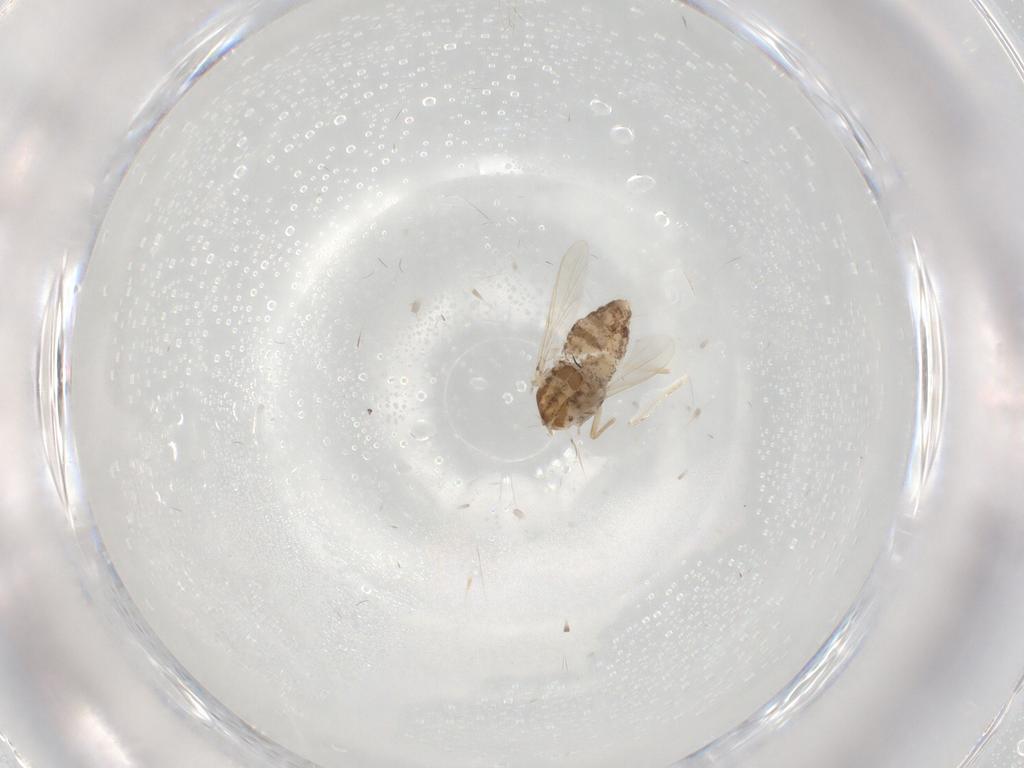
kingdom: Animalia
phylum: Arthropoda
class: Insecta
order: Diptera
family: Chironomidae
